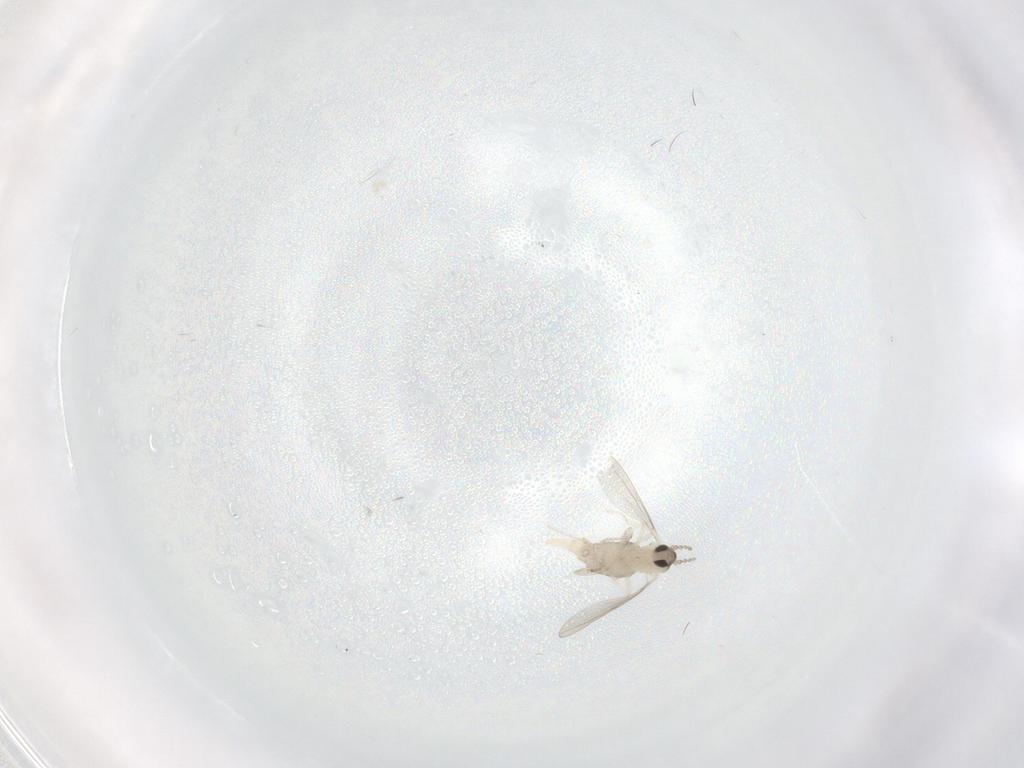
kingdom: Animalia
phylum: Arthropoda
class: Insecta
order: Diptera
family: Cecidomyiidae
